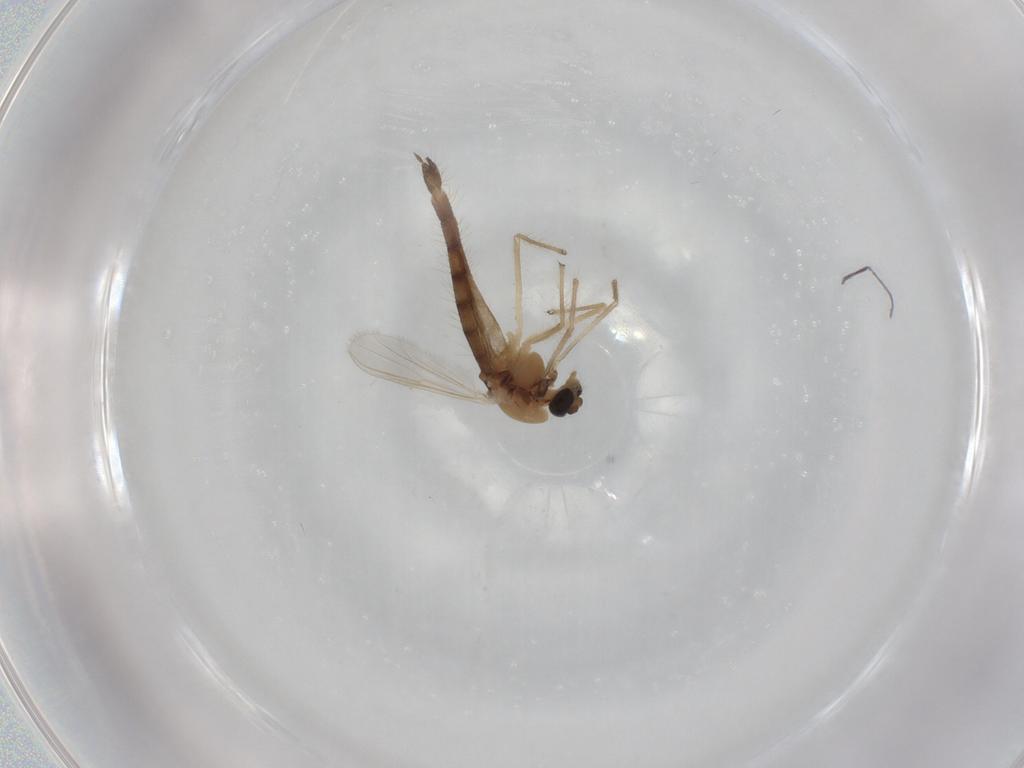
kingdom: Animalia
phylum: Arthropoda
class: Insecta
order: Diptera
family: Chironomidae
